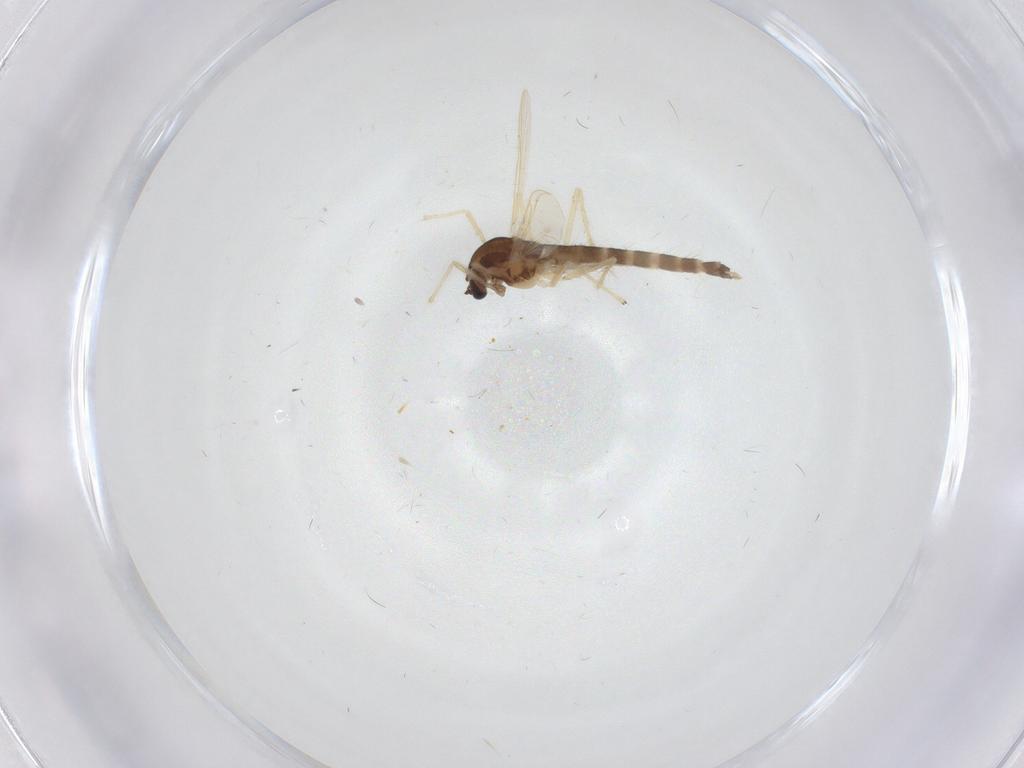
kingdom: Animalia
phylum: Arthropoda
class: Insecta
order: Diptera
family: Chironomidae
